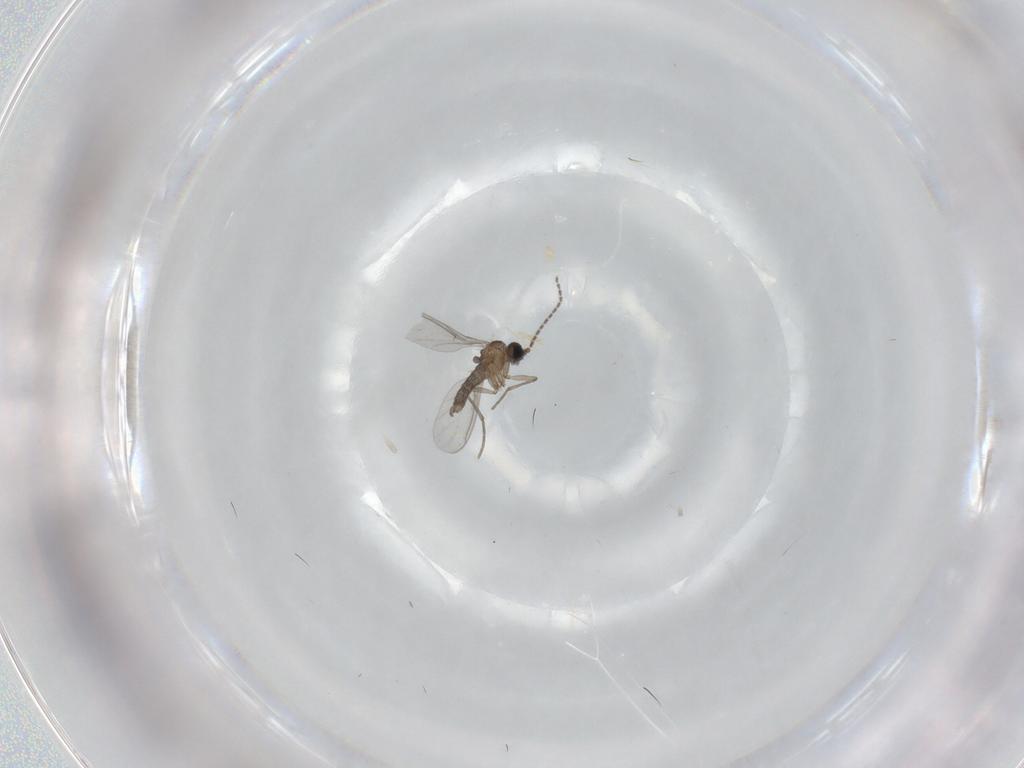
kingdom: Animalia
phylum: Arthropoda
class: Insecta
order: Diptera
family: Sciaridae
